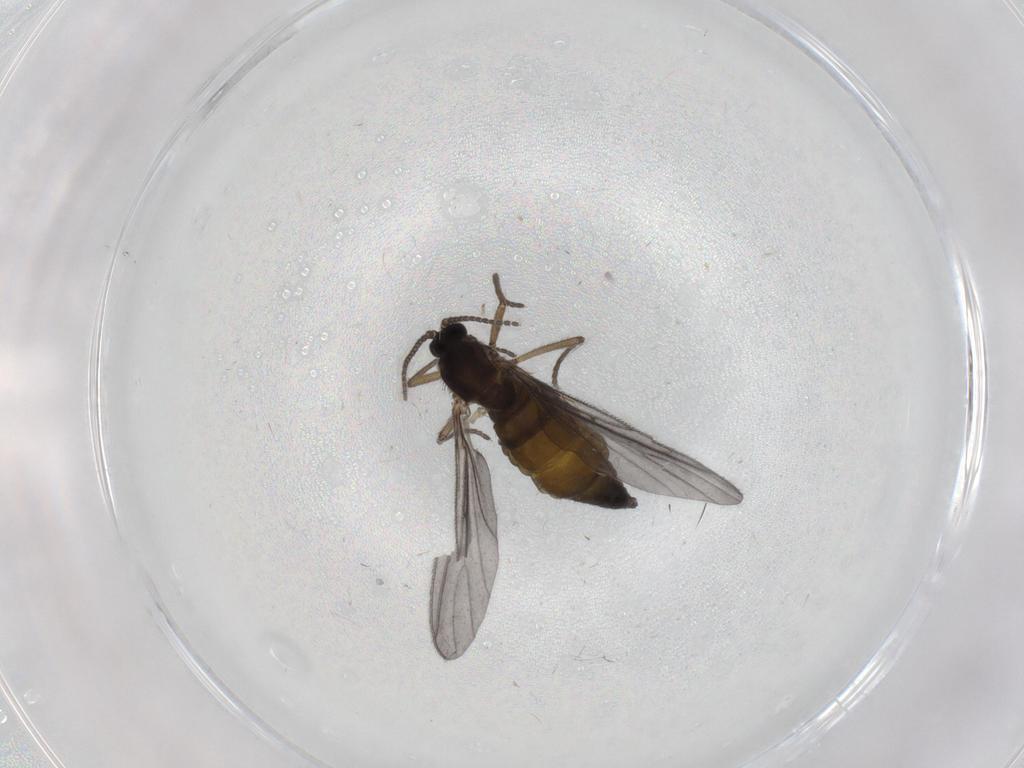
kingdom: Animalia
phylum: Arthropoda
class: Insecta
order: Diptera
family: Sciaridae
